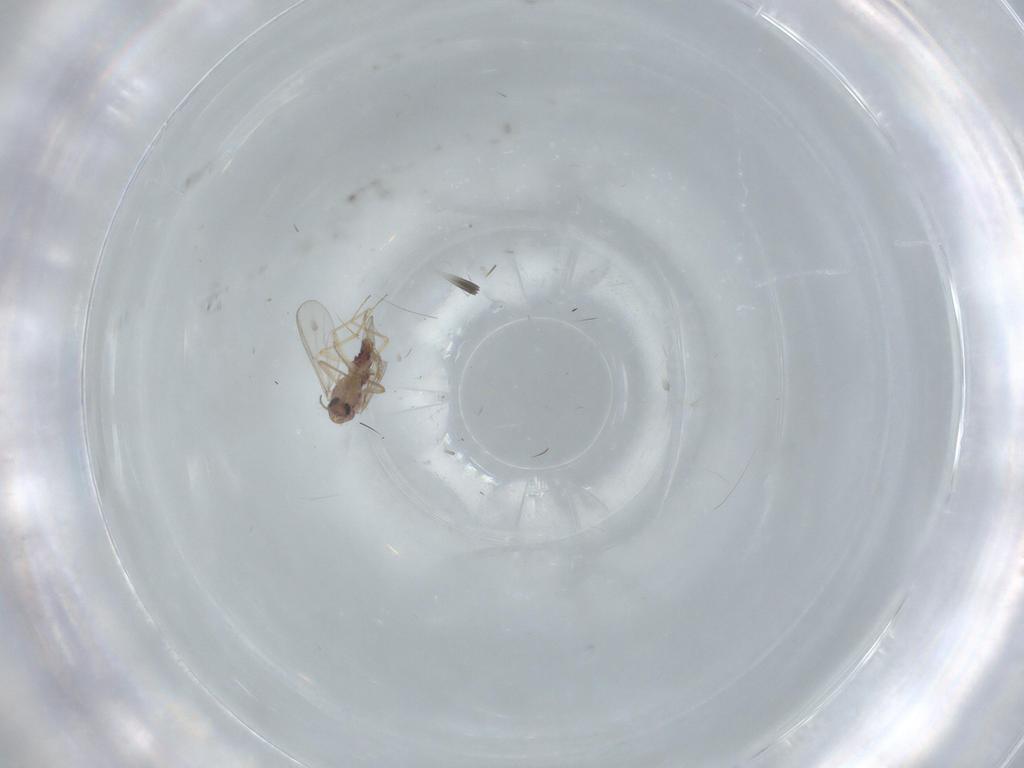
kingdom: Animalia
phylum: Arthropoda
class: Insecta
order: Diptera
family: Chironomidae
